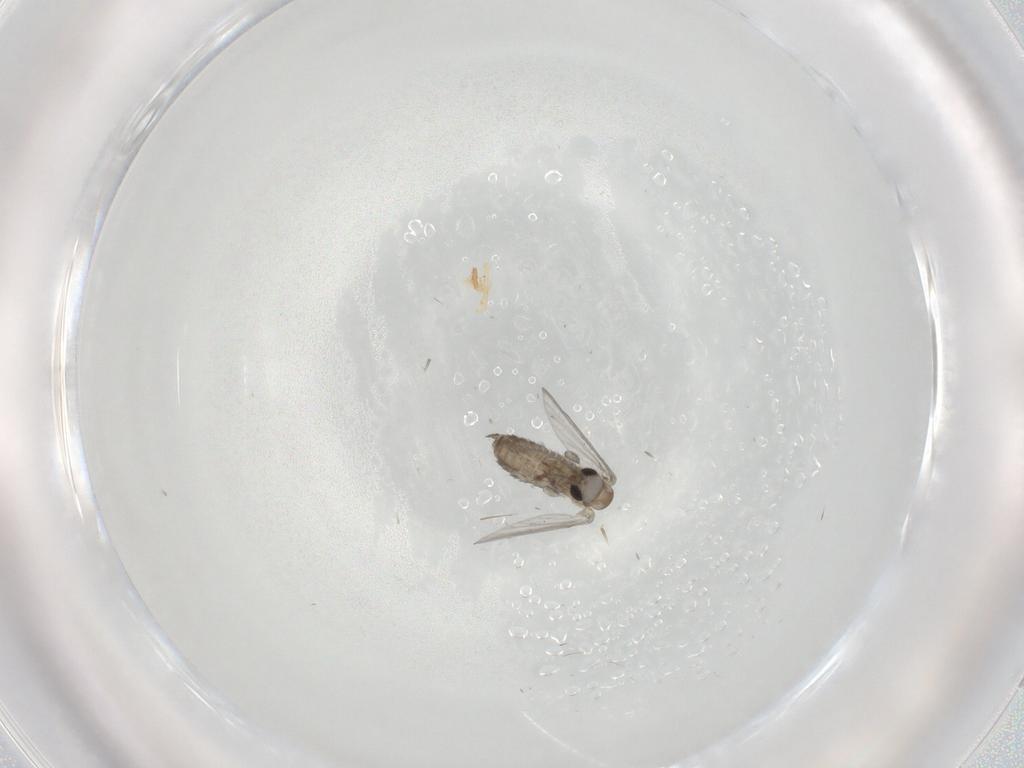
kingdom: Animalia
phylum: Arthropoda
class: Insecta
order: Diptera
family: Psychodidae
